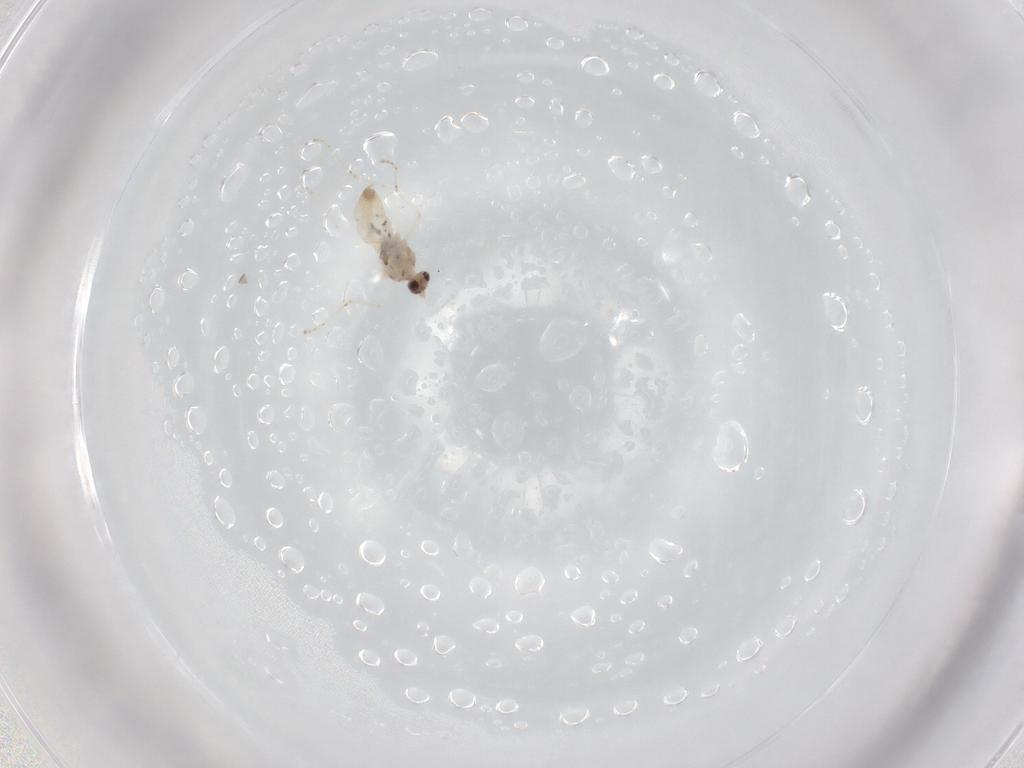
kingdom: Animalia
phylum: Arthropoda
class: Insecta
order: Diptera
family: Cecidomyiidae
